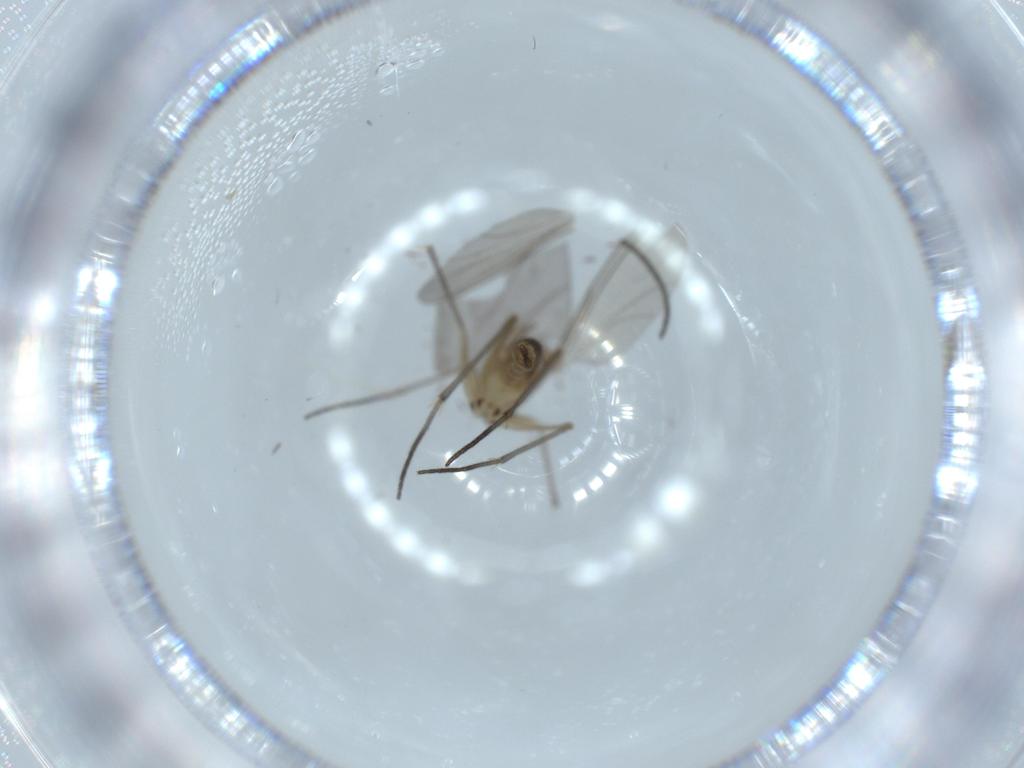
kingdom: Animalia
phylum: Arthropoda
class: Insecta
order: Diptera
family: Sciaridae
